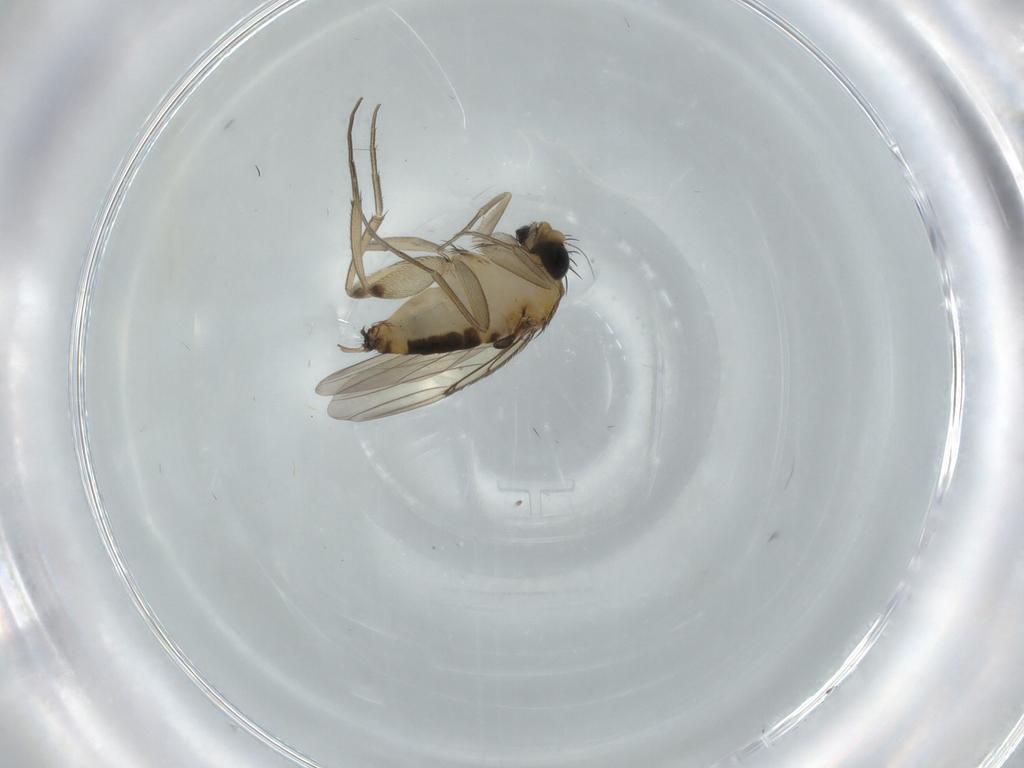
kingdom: Animalia
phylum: Arthropoda
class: Insecta
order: Diptera
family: Phoridae
